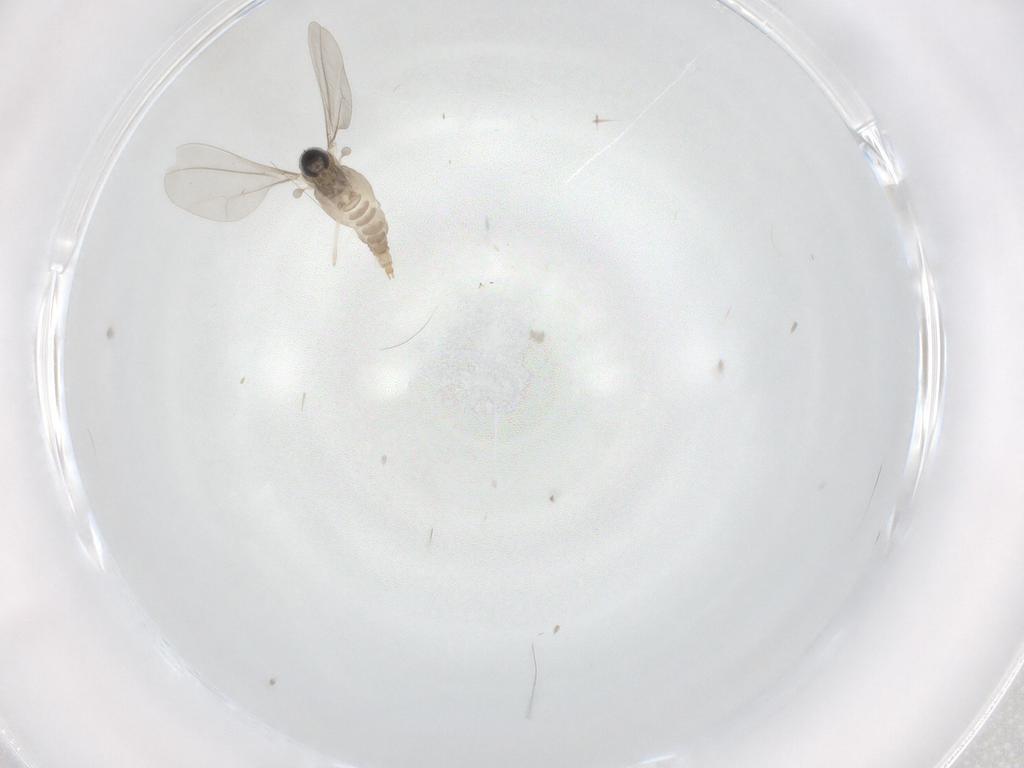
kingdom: Animalia
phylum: Arthropoda
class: Insecta
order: Diptera
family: Cecidomyiidae
